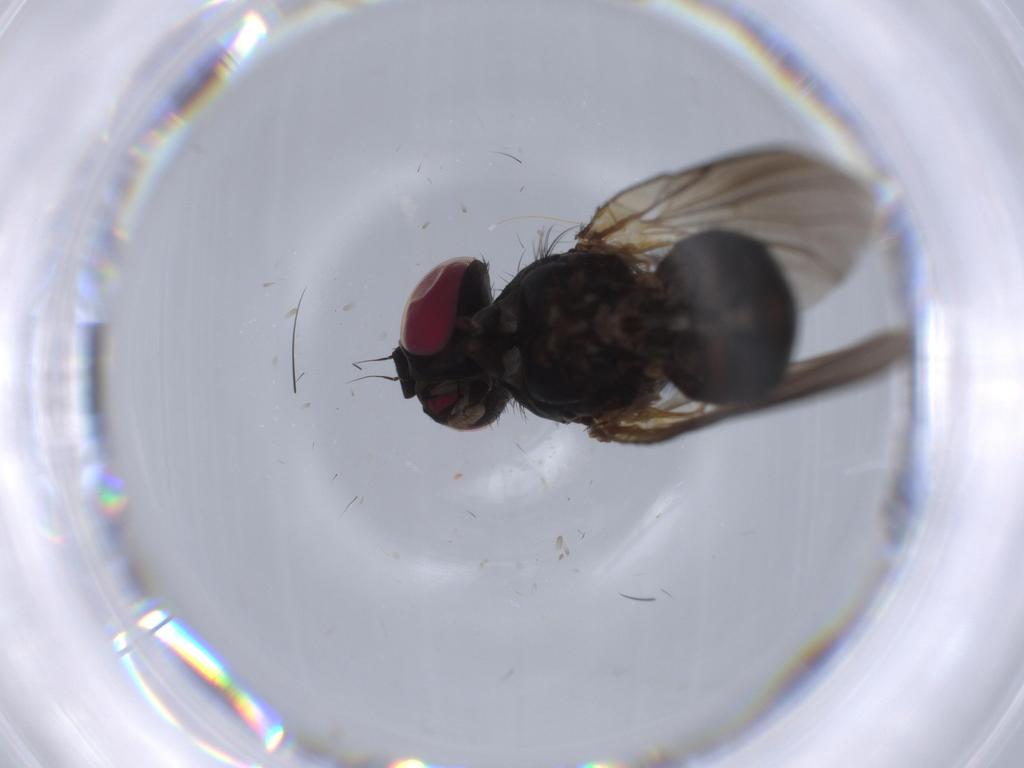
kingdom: Animalia
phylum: Arthropoda
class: Insecta
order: Diptera
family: Xylophagidae
